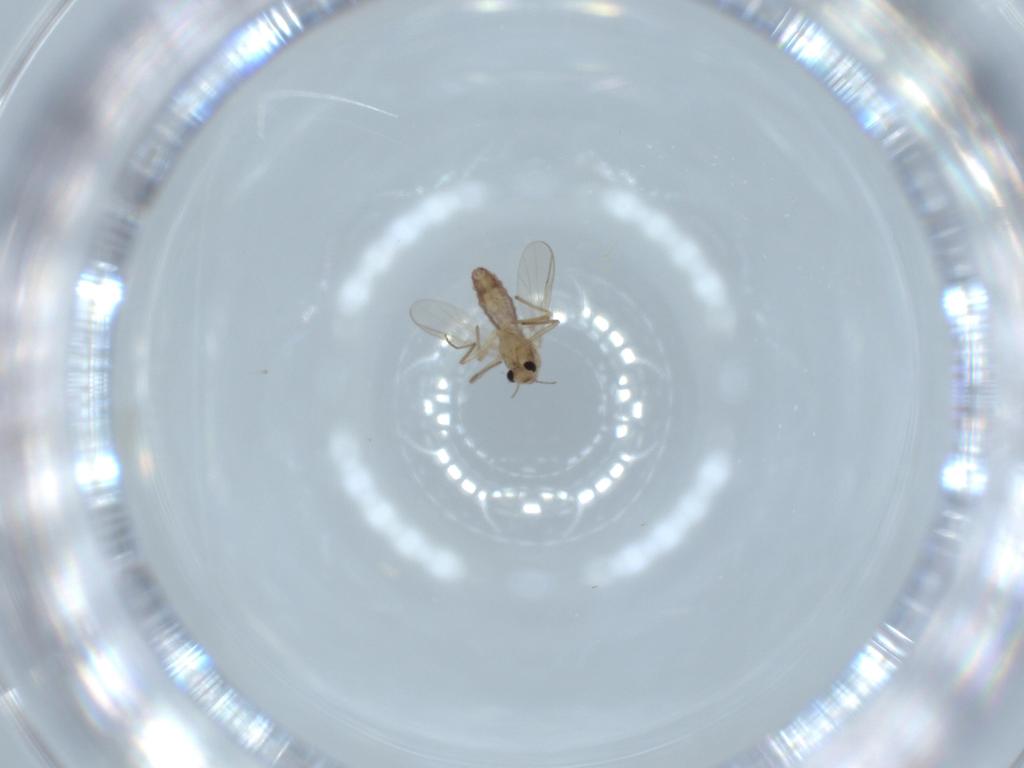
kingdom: Animalia
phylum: Arthropoda
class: Insecta
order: Diptera
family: Chironomidae
